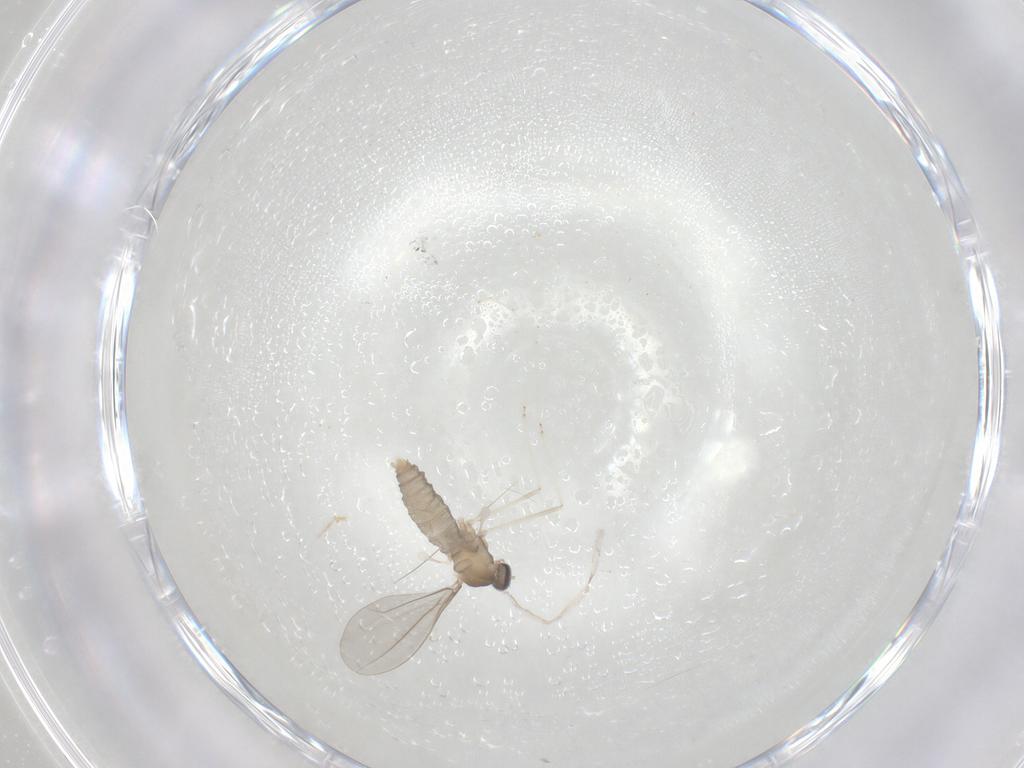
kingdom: Animalia
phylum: Arthropoda
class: Insecta
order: Diptera
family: Cecidomyiidae
